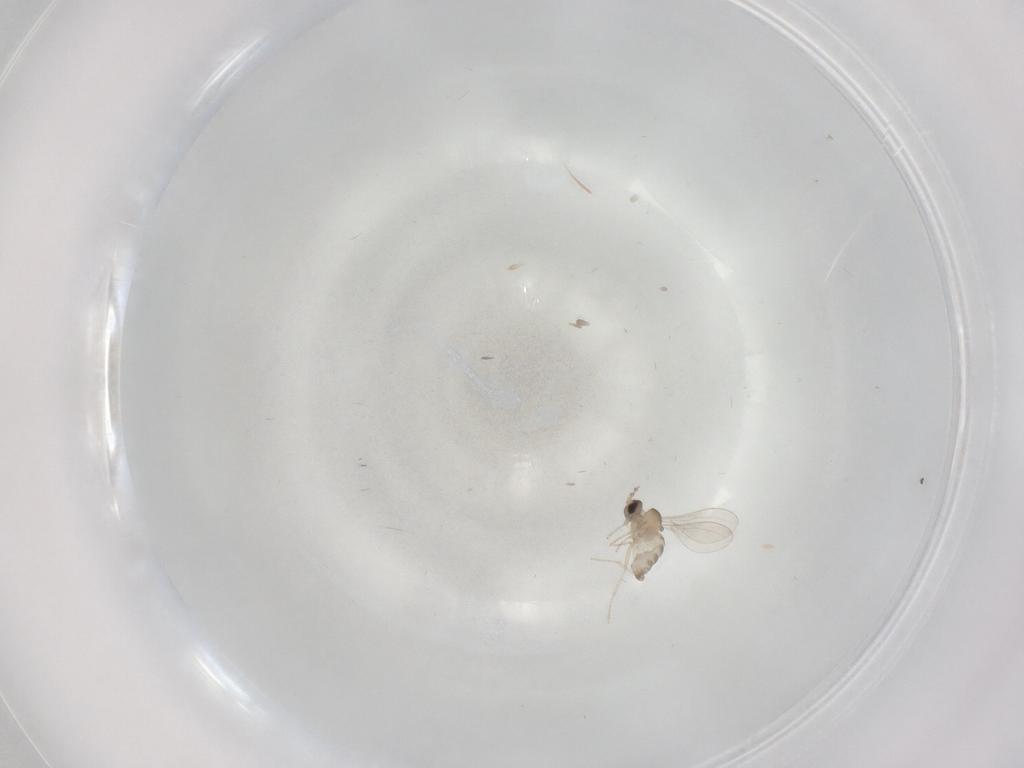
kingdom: Animalia
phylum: Arthropoda
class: Insecta
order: Diptera
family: Cecidomyiidae
